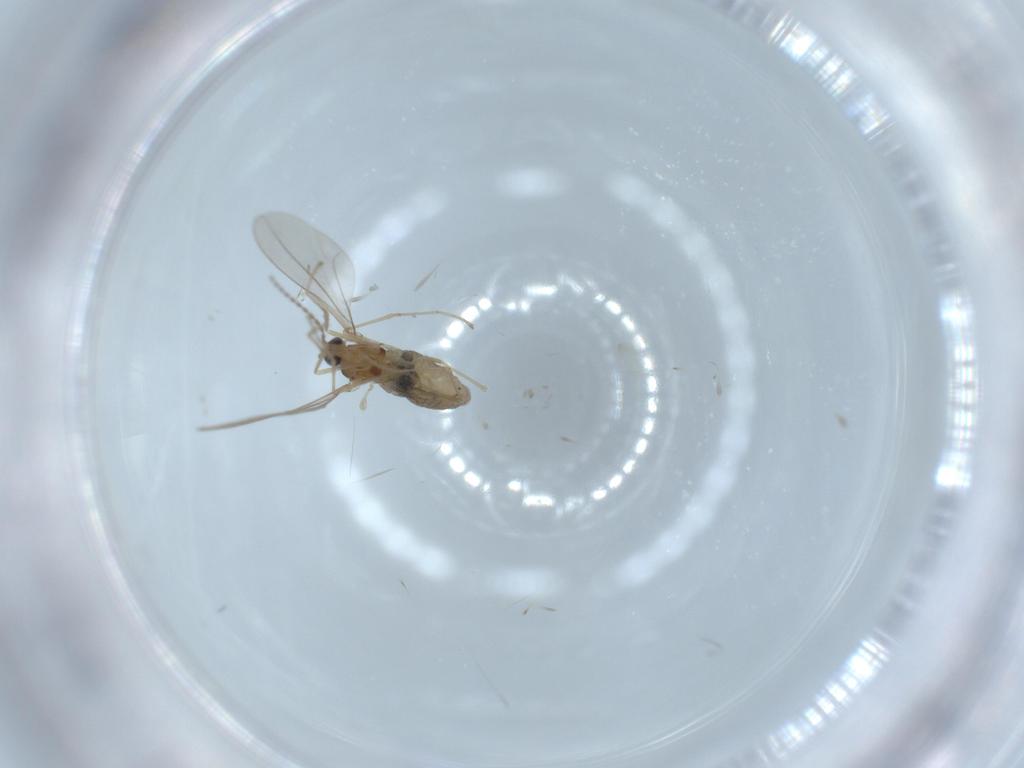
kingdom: Animalia
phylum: Arthropoda
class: Insecta
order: Diptera
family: Cecidomyiidae
